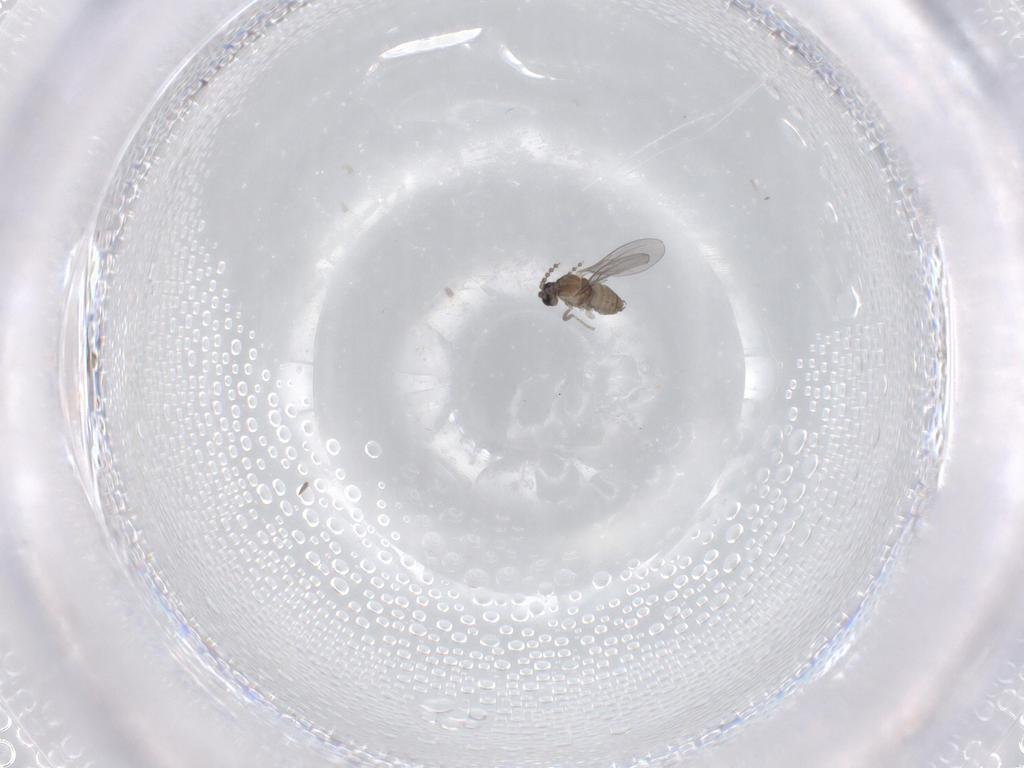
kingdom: Animalia
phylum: Arthropoda
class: Insecta
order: Diptera
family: Cecidomyiidae
